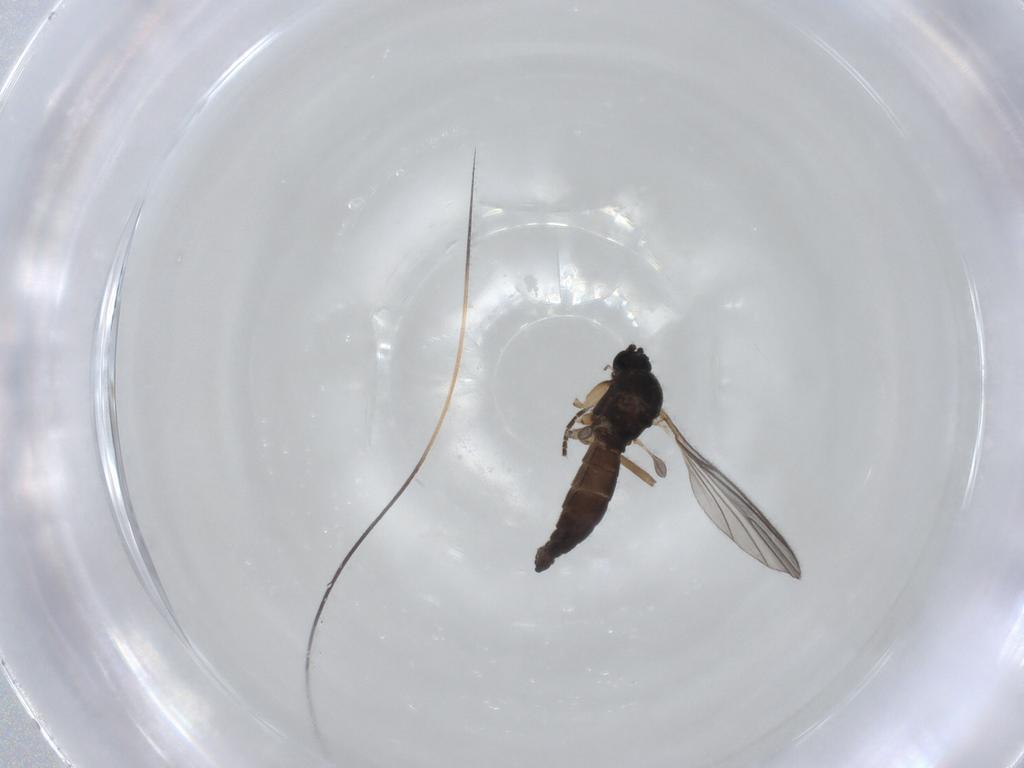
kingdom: Animalia
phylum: Arthropoda
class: Insecta
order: Diptera
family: Sciaridae
